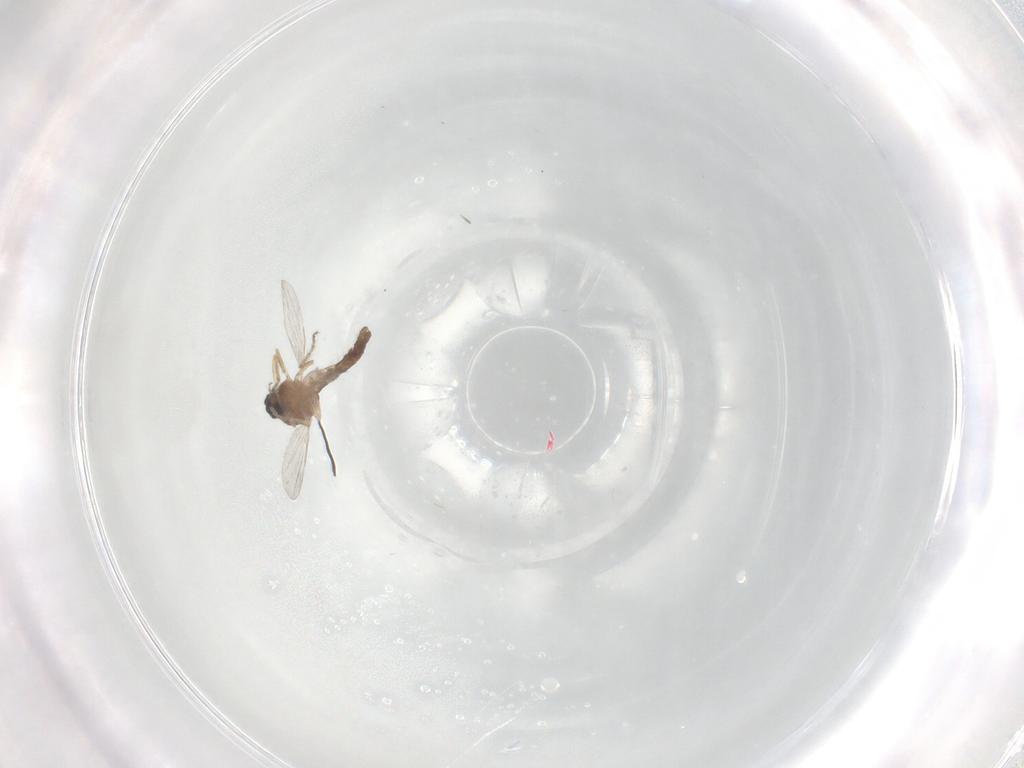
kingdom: Animalia
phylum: Arthropoda
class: Insecta
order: Diptera
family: Ceratopogonidae
